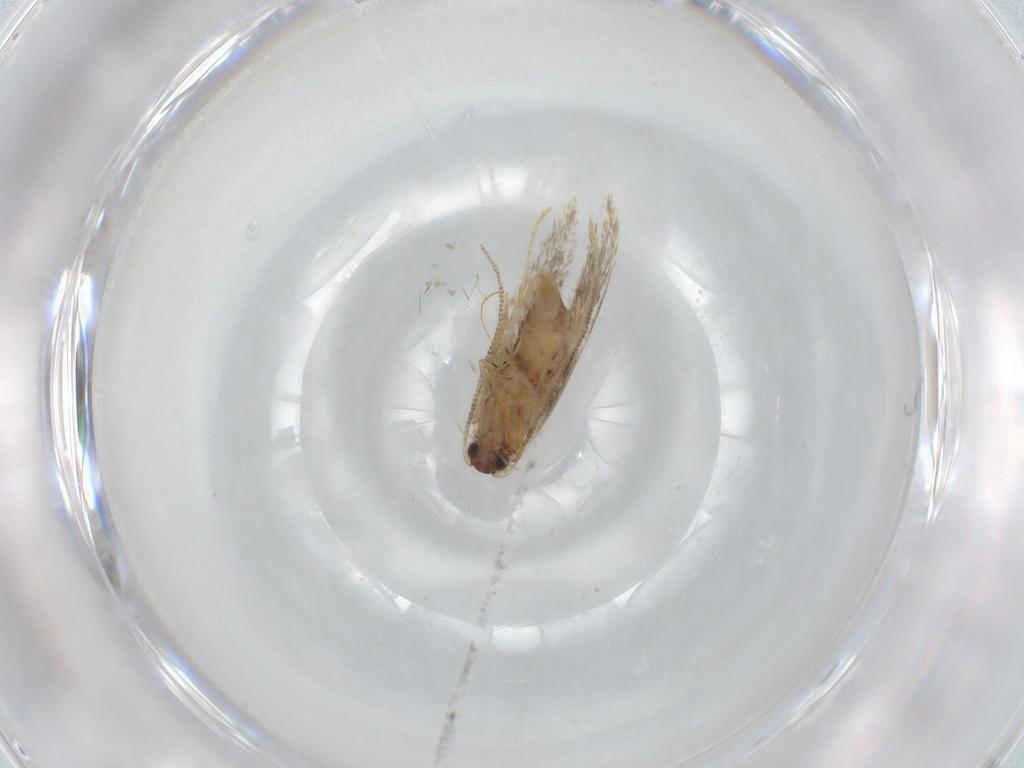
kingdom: Animalia
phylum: Arthropoda
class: Insecta
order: Lepidoptera
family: Tineidae
